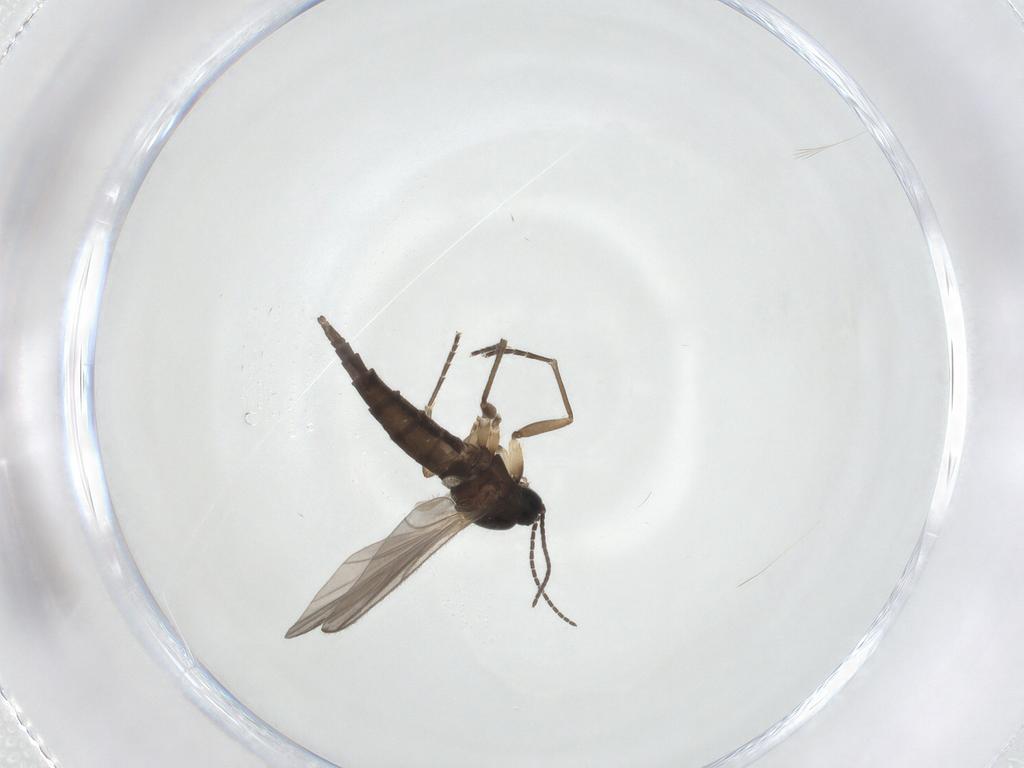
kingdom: Animalia
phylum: Arthropoda
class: Insecta
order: Diptera
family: Sciaridae
